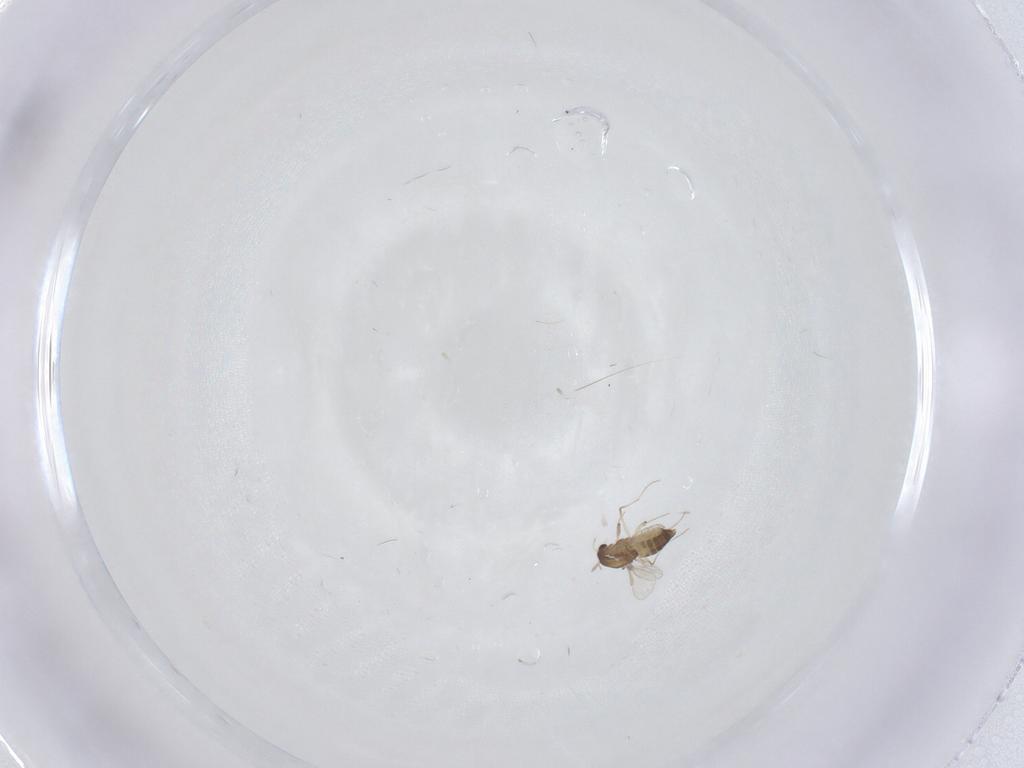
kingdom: Animalia
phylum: Arthropoda
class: Insecta
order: Diptera
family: Chironomidae
